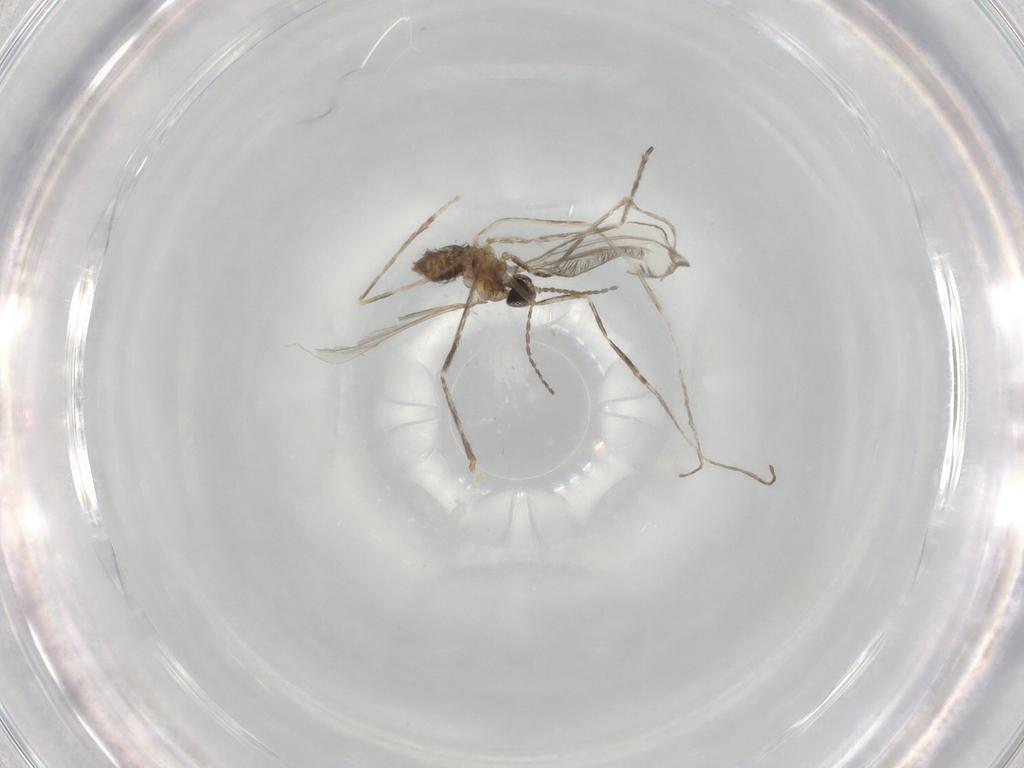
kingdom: Animalia
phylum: Arthropoda
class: Insecta
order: Diptera
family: Cecidomyiidae
